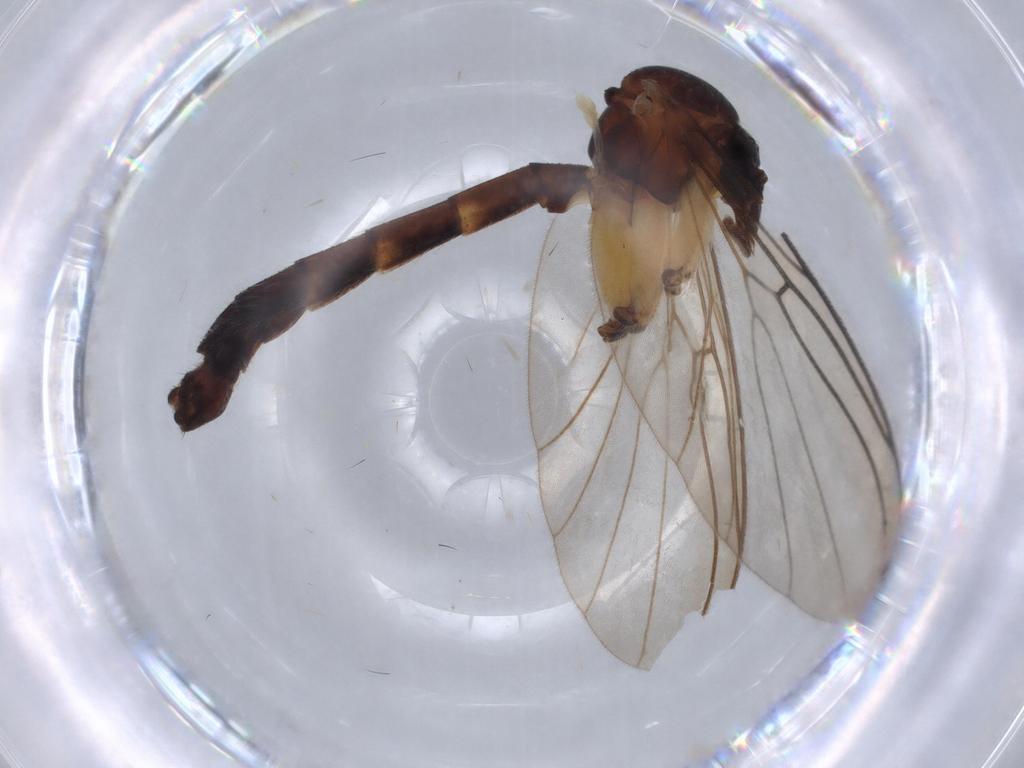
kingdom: Animalia
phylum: Arthropoda
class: Insecta
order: Diptera
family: Mycetophilidae
